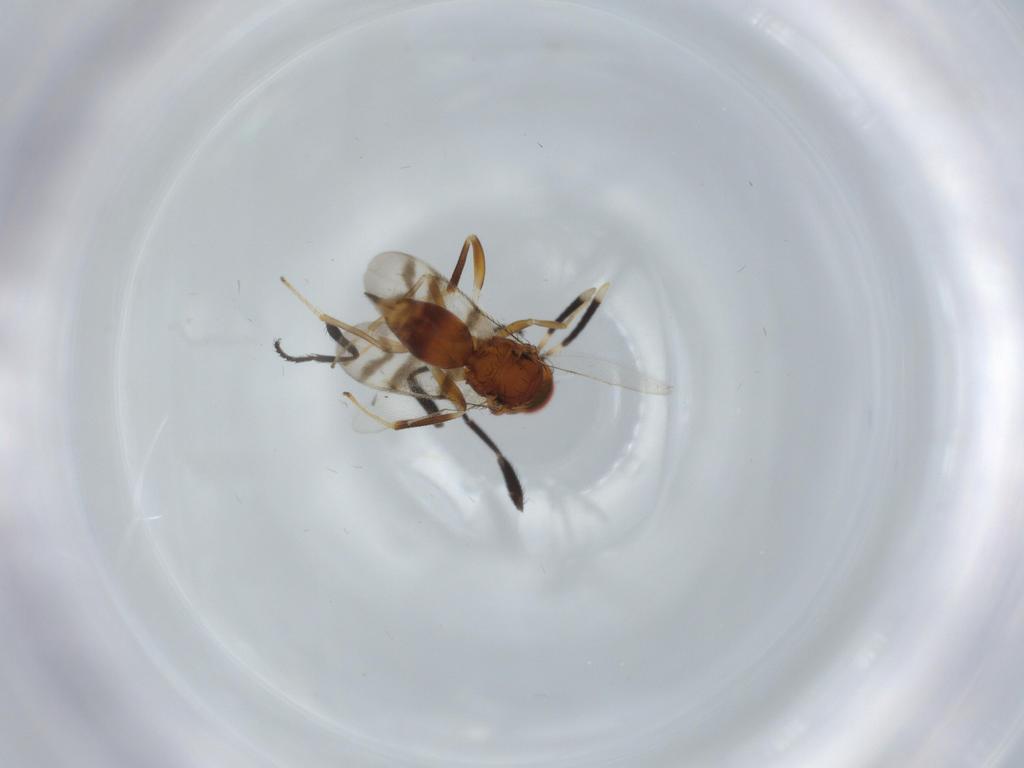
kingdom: Animalia
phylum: Arthropoda
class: Insecta
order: Hymenoptera
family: Diparidae
